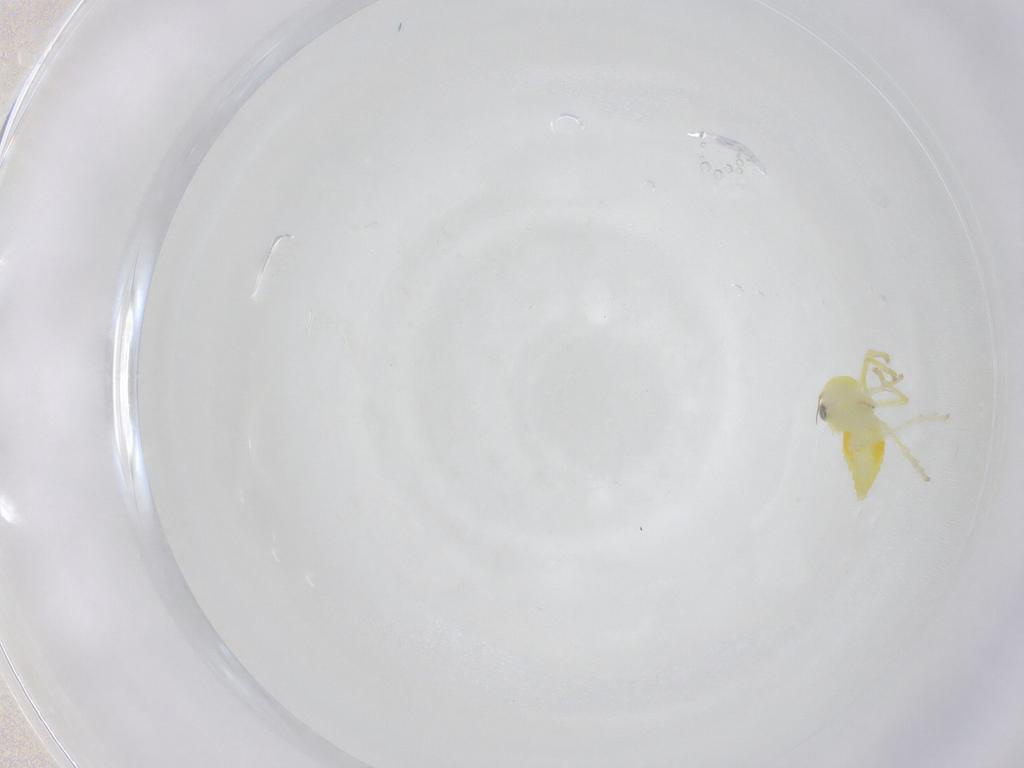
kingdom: Animalia
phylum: Arthropoda
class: Insecta
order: Hemiptera
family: Cicadellidae
